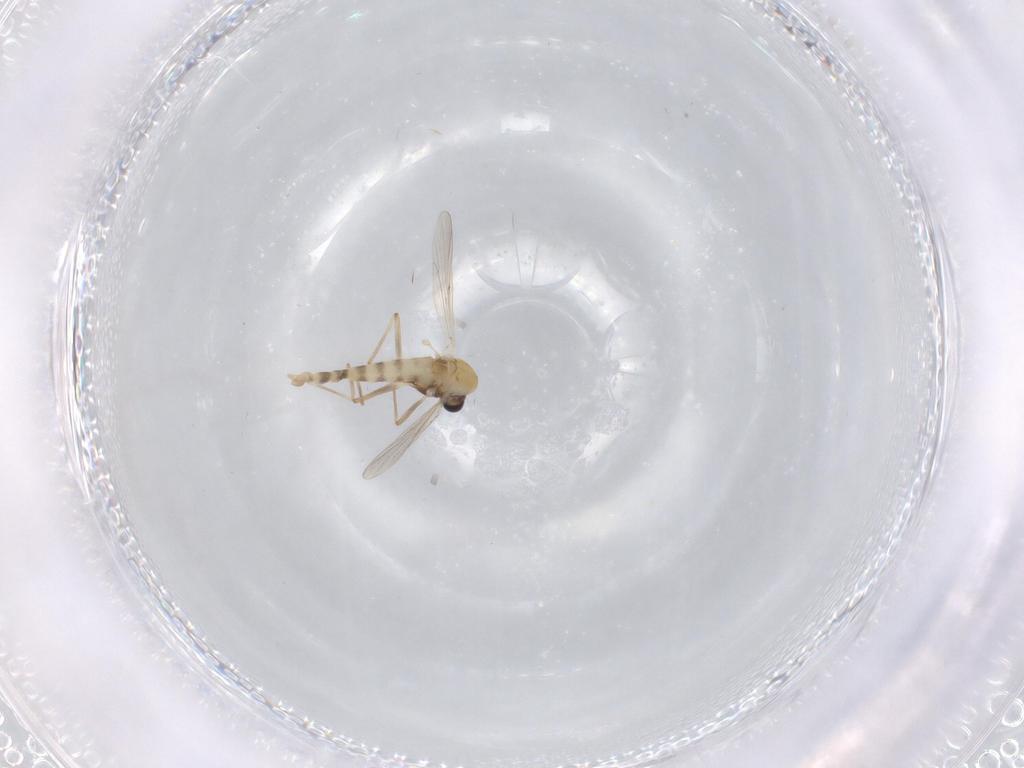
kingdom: Animalia
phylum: Arthropoda
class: Insecta
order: Diptera
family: Chironomidae
